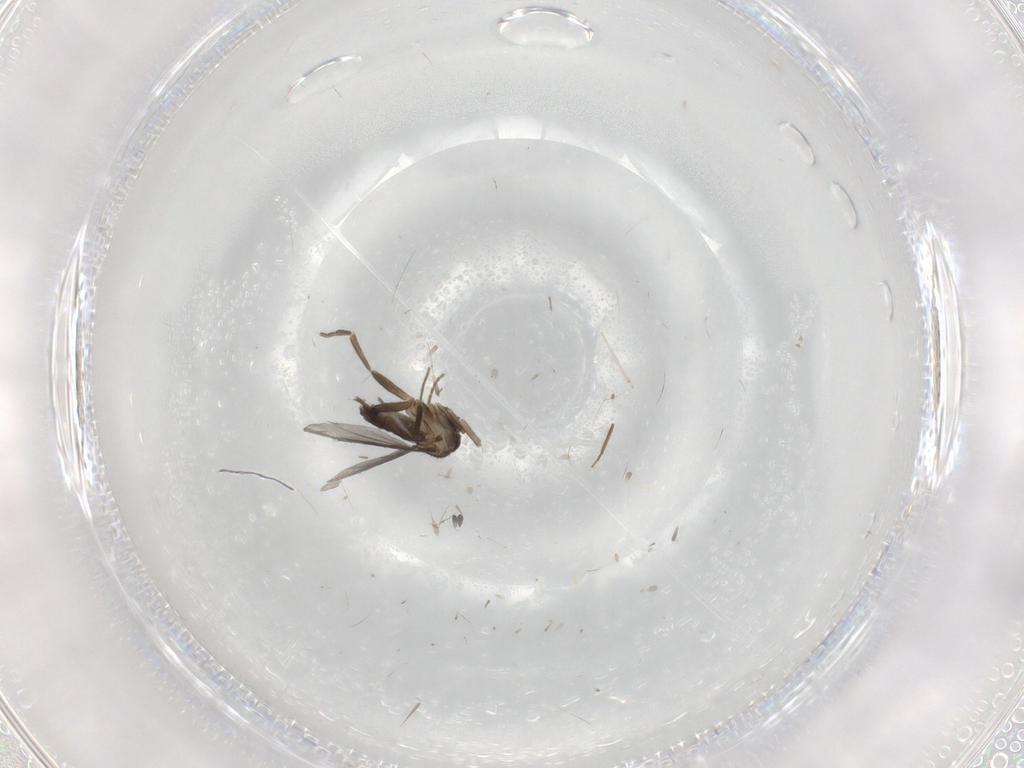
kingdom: Animalia
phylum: Arthropoda
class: Insecta
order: Diptera
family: Phoridae
